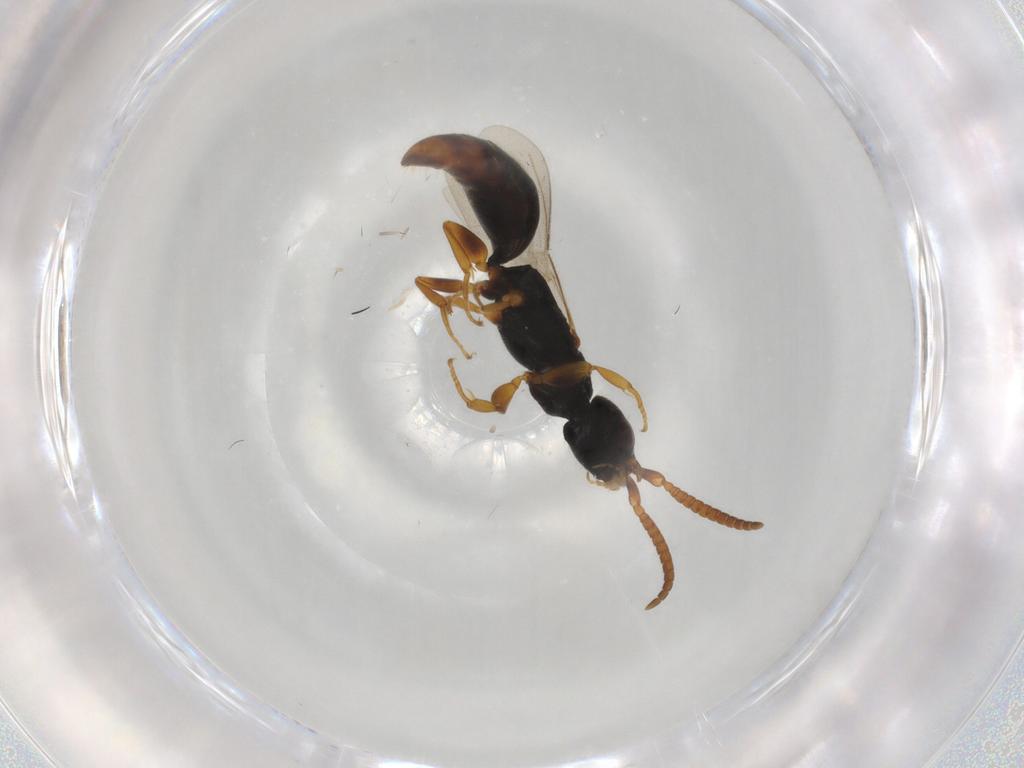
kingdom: Animalia
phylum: Arthropoda
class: Insecta
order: Hymenoptera
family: Bethylidae
